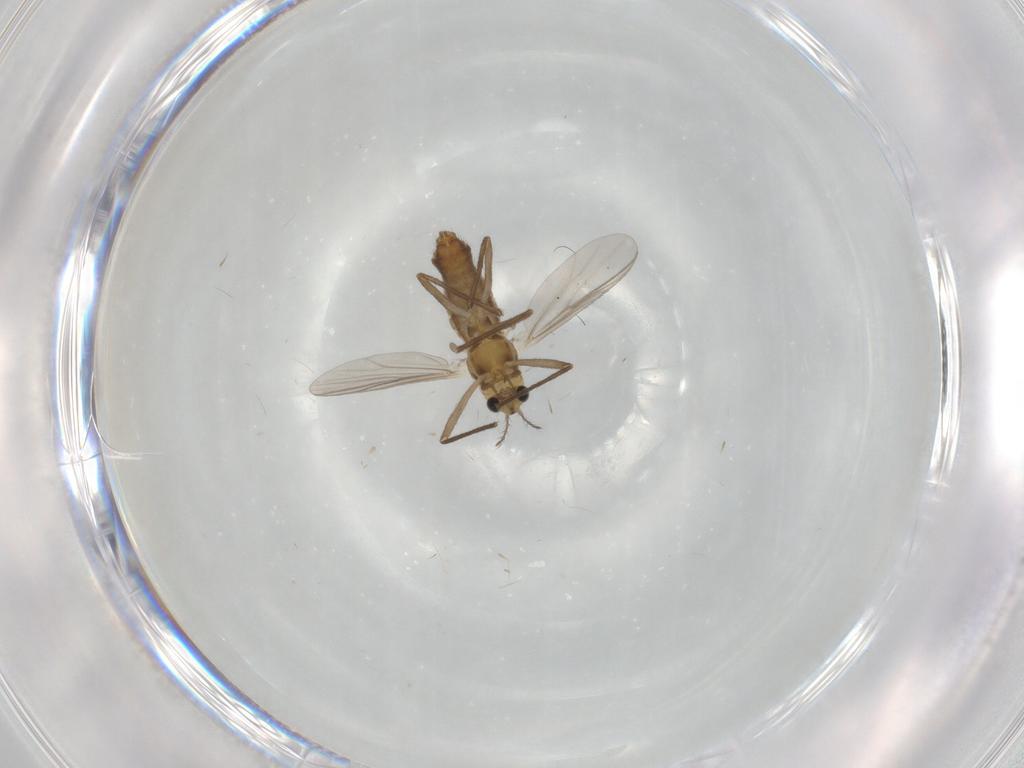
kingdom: Animalia
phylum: Arthropoda
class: Insecta
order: Diptera
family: Chironomidae
